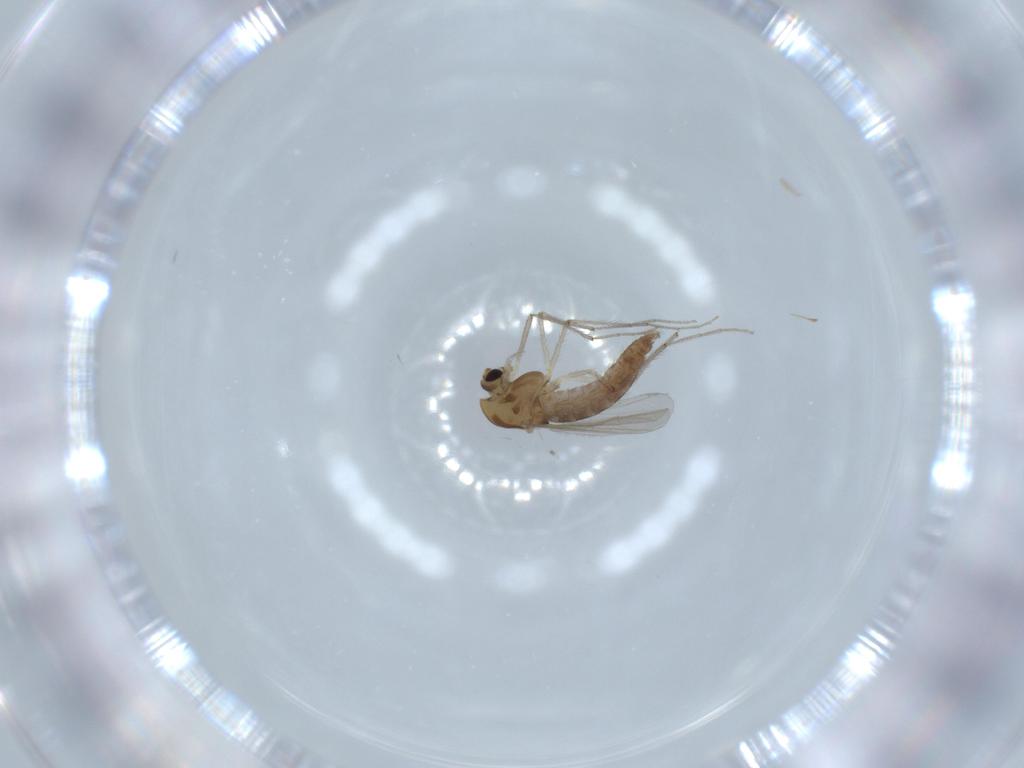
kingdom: Animalia
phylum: Arthropoda
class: Insecta
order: Diptera
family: Chironomidae
